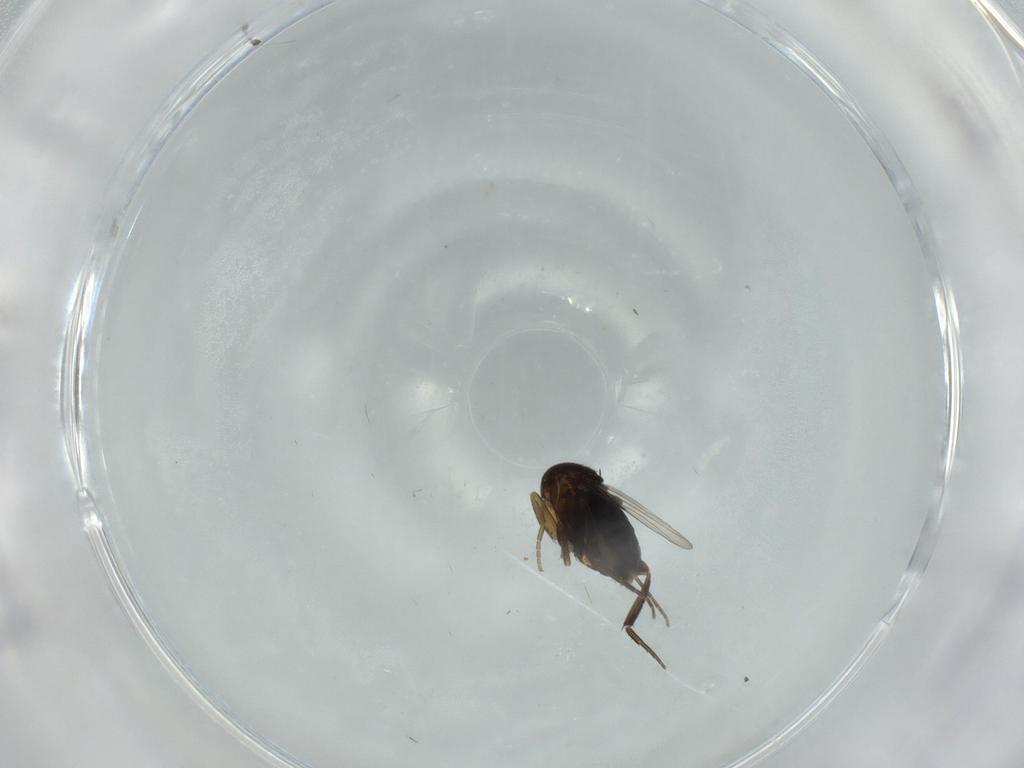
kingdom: Animalia
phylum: Arthropoda
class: Insecta
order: Diptera
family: Phoridae
